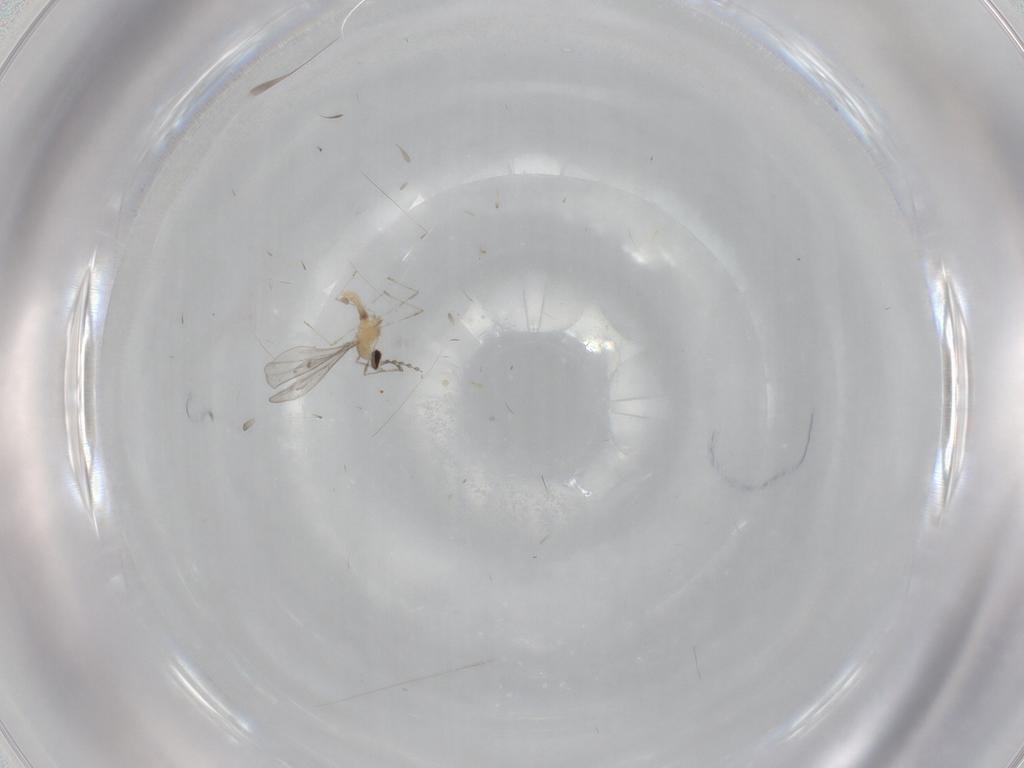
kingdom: Animalia
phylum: Arthropoda
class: Insecta
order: Diptera
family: Cecidomyiidae
